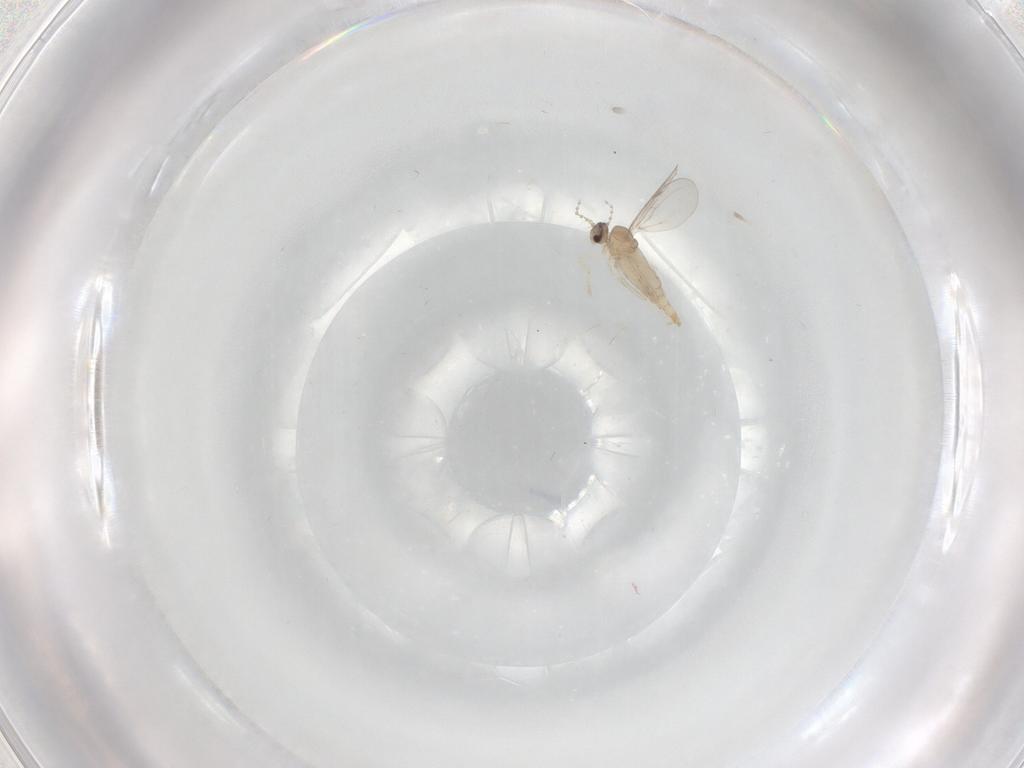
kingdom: Animalia
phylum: Arthropoda
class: Insecta
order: Diptera
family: Cecidomyiidae
